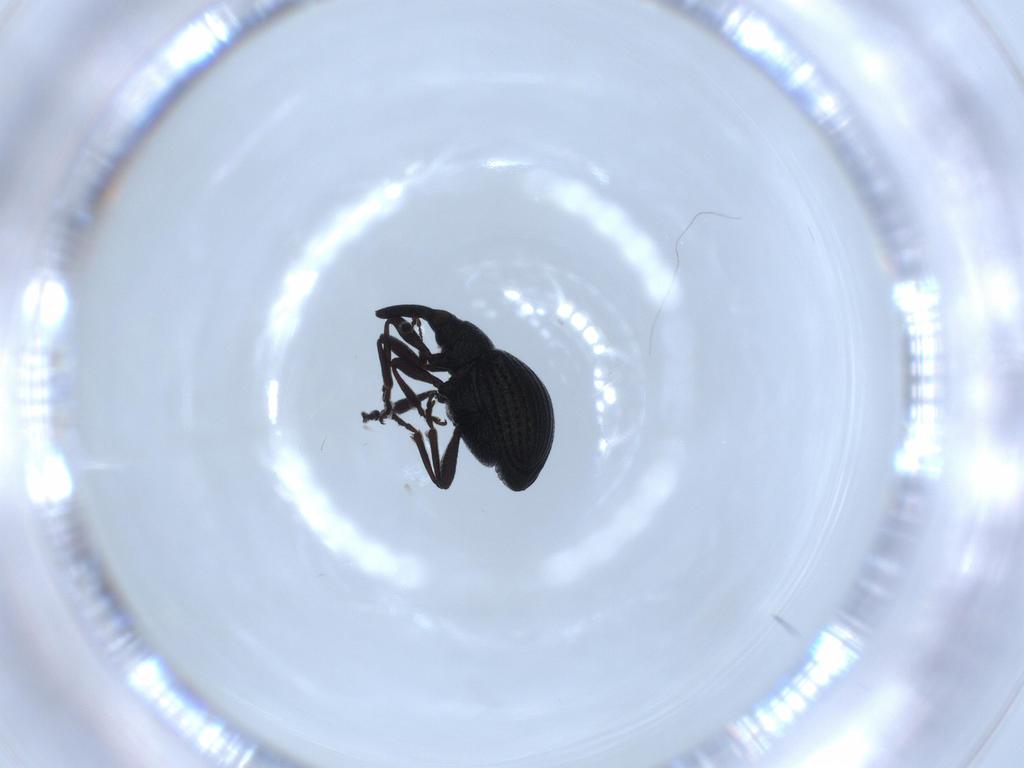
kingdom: Animalia
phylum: Arthropoda
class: Insecta
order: Coleoptera
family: Brentidae
